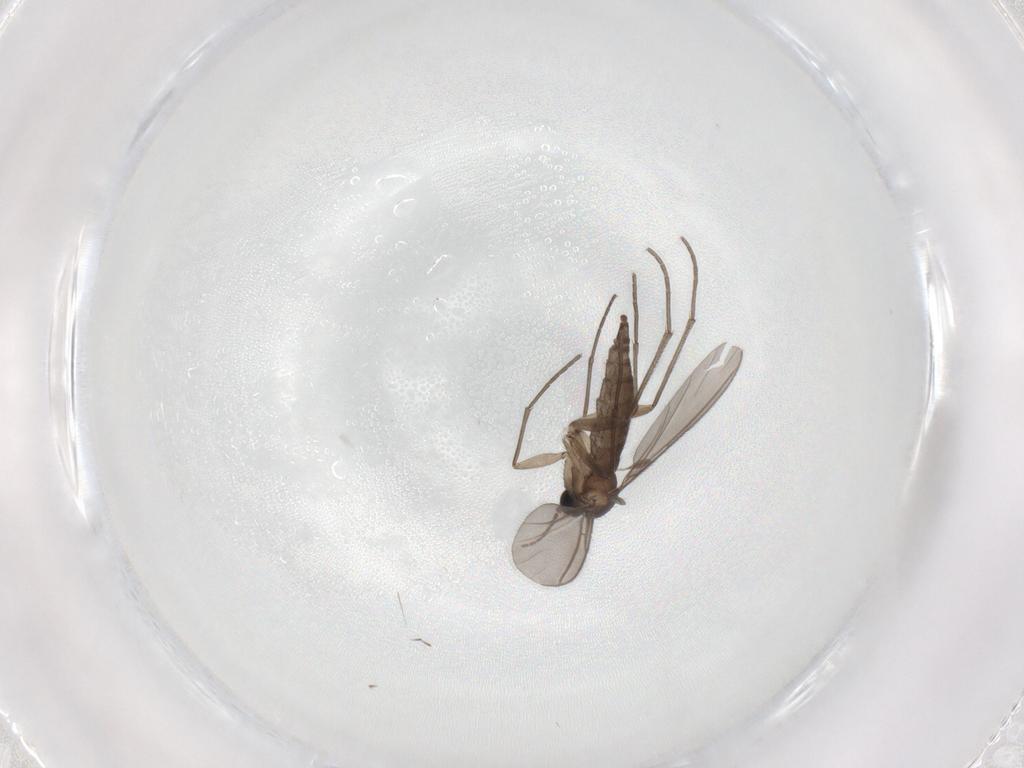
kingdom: Animalia
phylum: Arthropoda
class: Insecta
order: Diptera
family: Sciaridae
